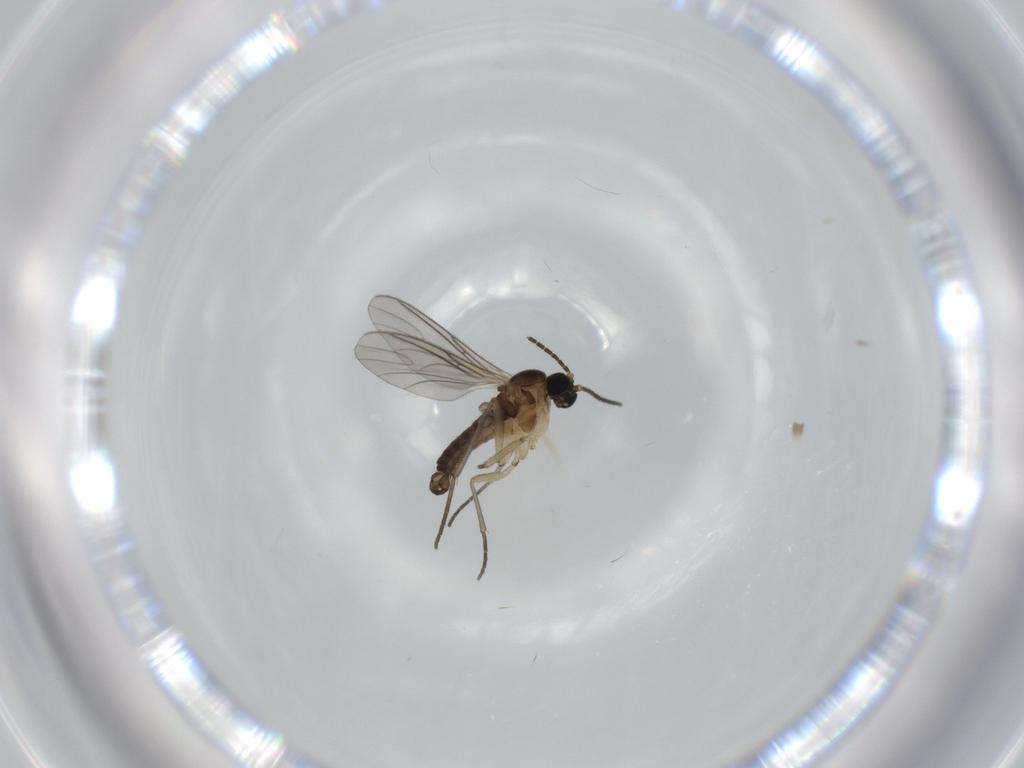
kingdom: Animalia
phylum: Arthropoda
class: Insecta
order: Diptera
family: Sciaridae
